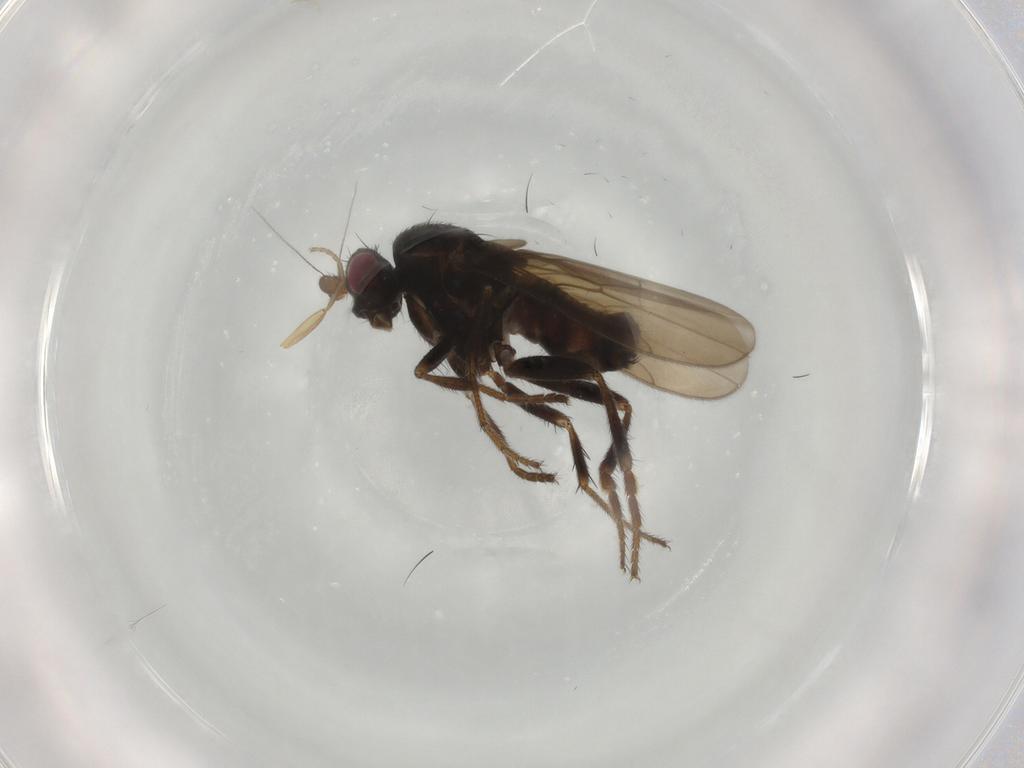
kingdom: Animalia
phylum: Arthropoda
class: Insecta
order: Diptera
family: Sphaeroceridae
